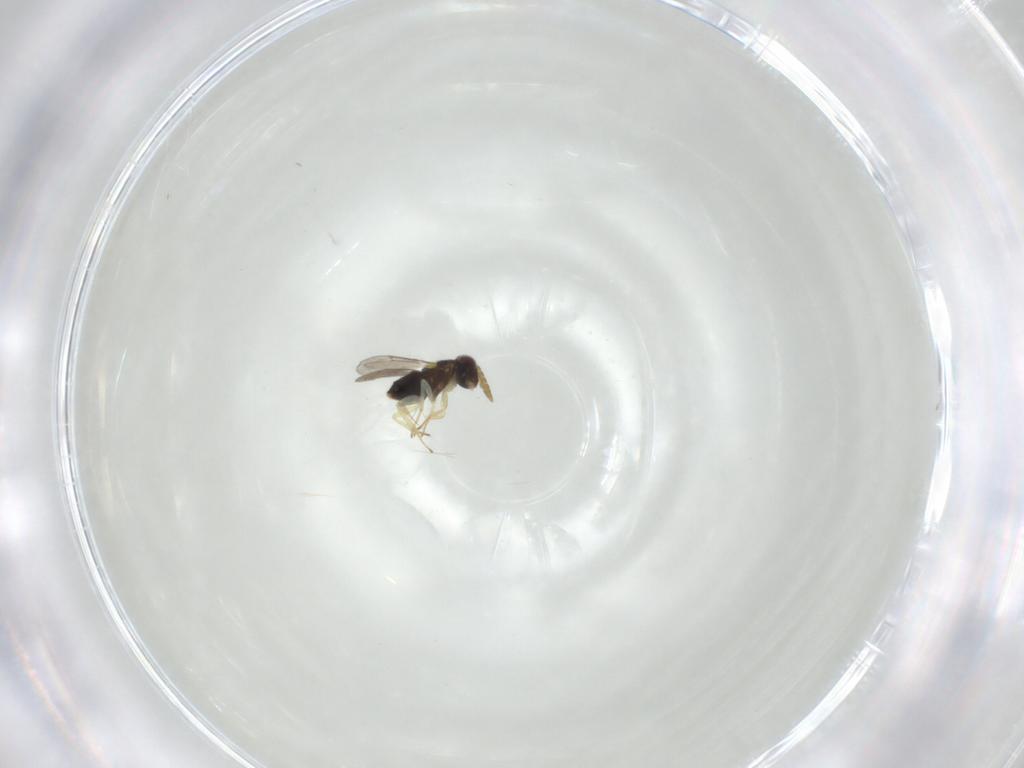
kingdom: Animalia
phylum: Arthropoda
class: Insecta
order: Hymenoptera
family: Aphelinidae
